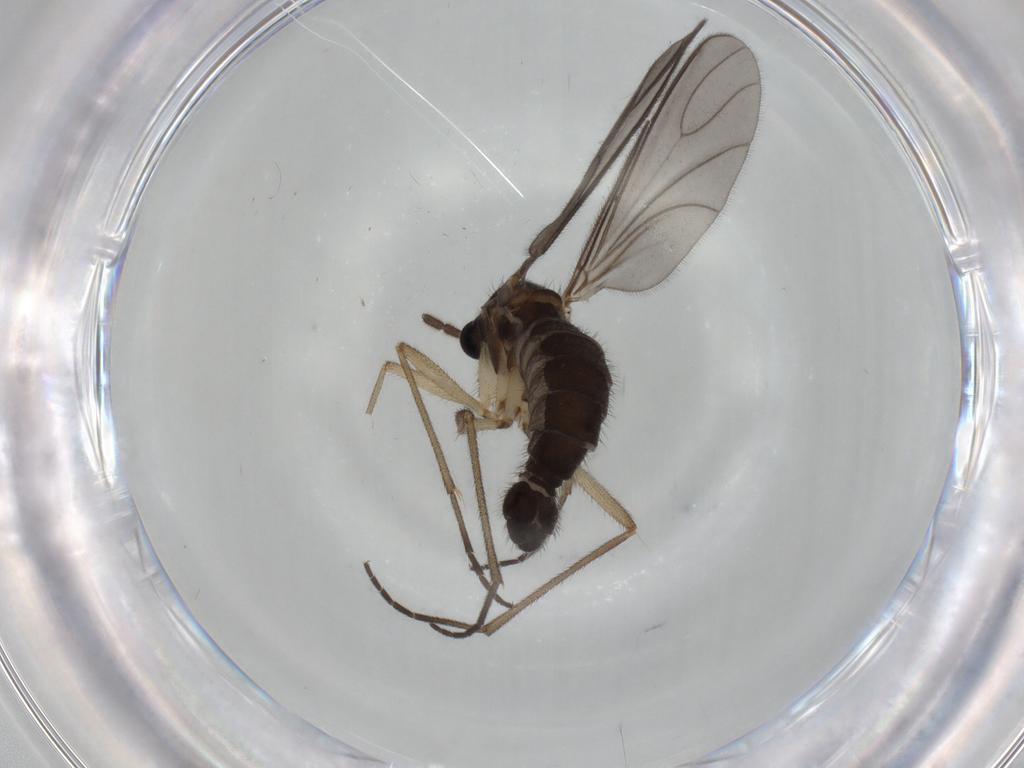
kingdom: Animalia
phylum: Arthropoda
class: Insecta
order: Diptera
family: Sciaridae
